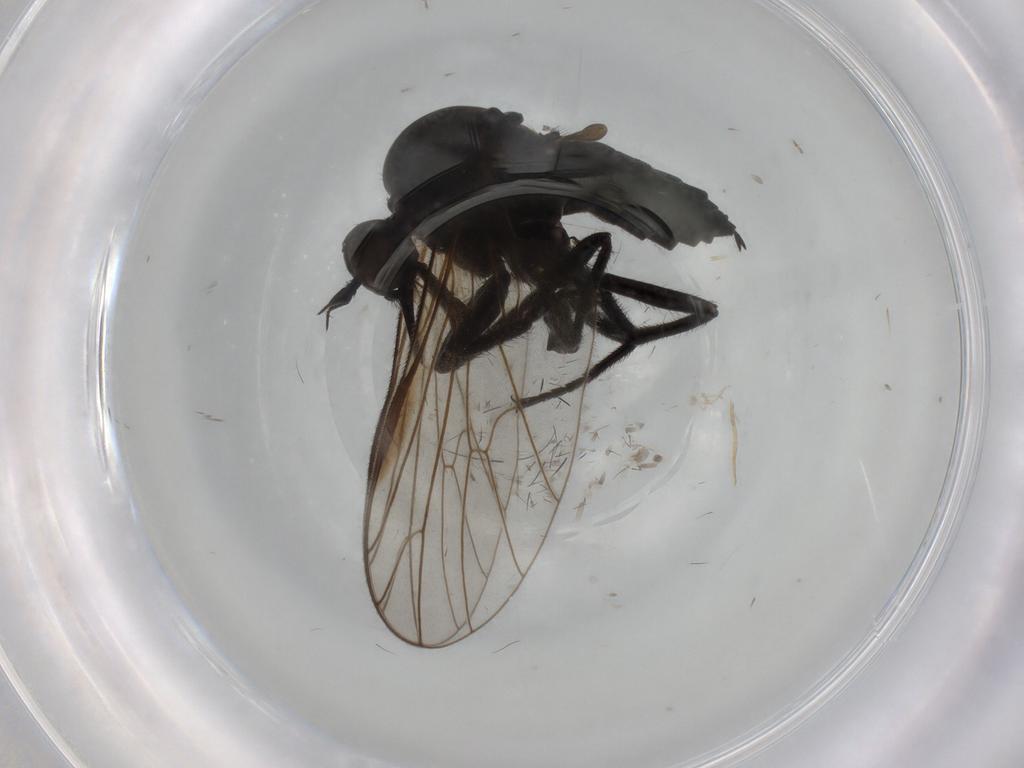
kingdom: Animalia
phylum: Arthropoda
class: Insecta
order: Diptera
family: Empididae
